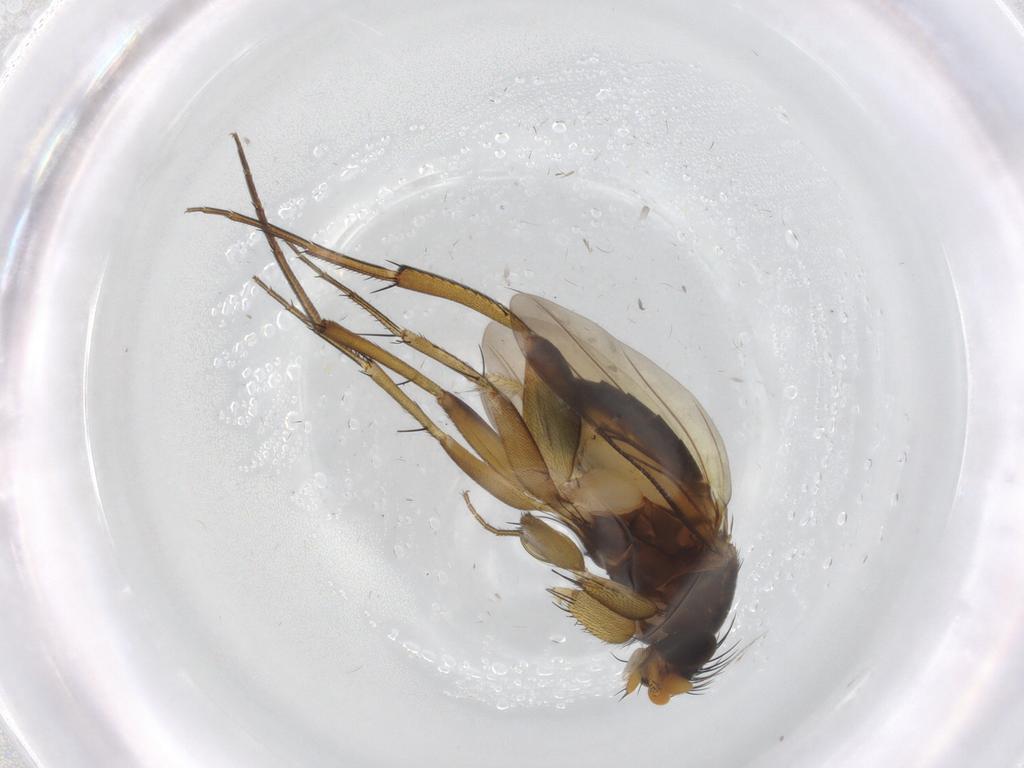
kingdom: Animalia
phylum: Arthropoda
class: Insecta
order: Diptera
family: Phoridae
